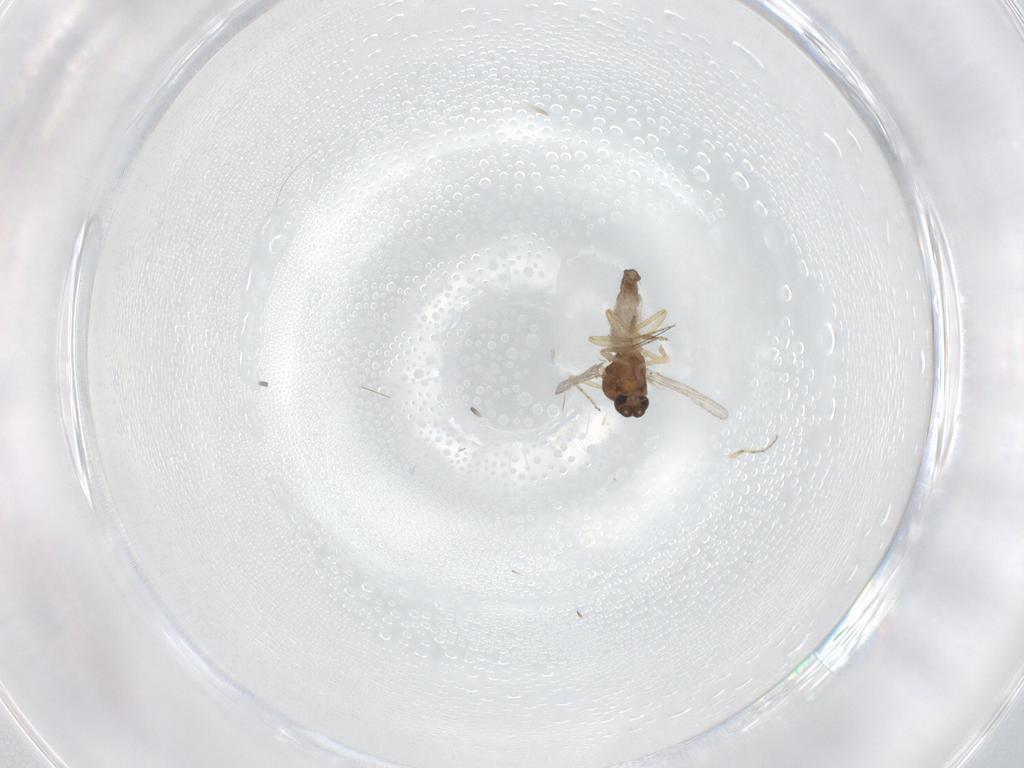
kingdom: Animalia
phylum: Arthropoda
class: Insecta
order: Diptera
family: Ceratopogonidae
